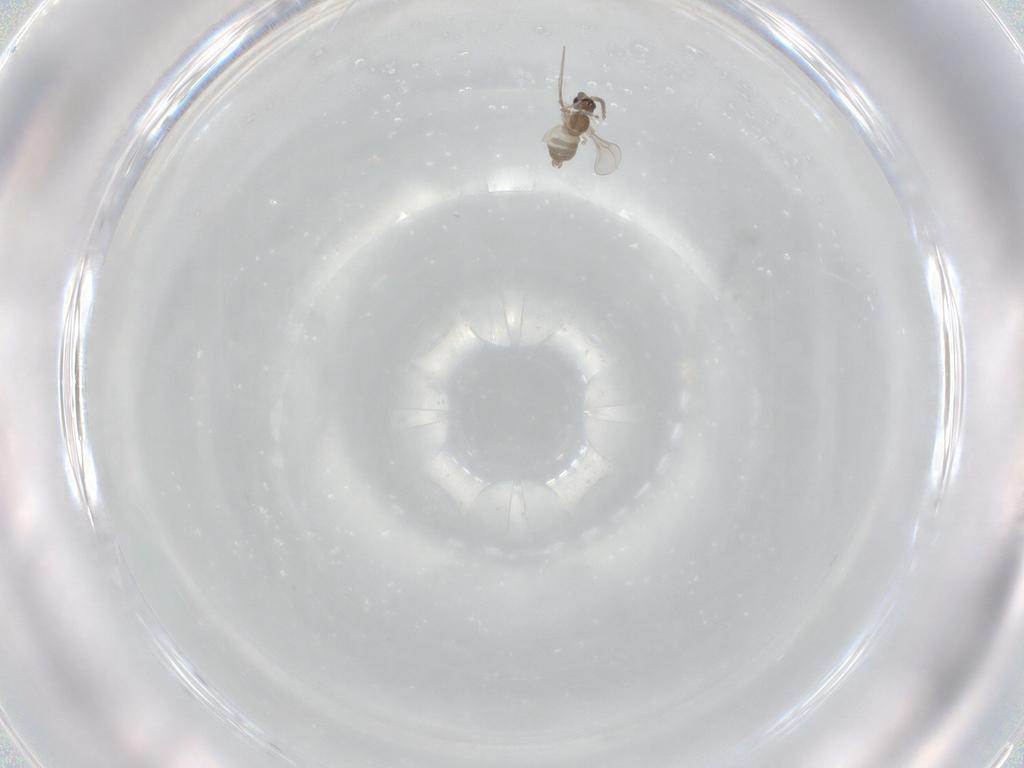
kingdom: Animalia
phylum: Arthropoda
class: Insecta
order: Diptera
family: Cecidomyiidae
